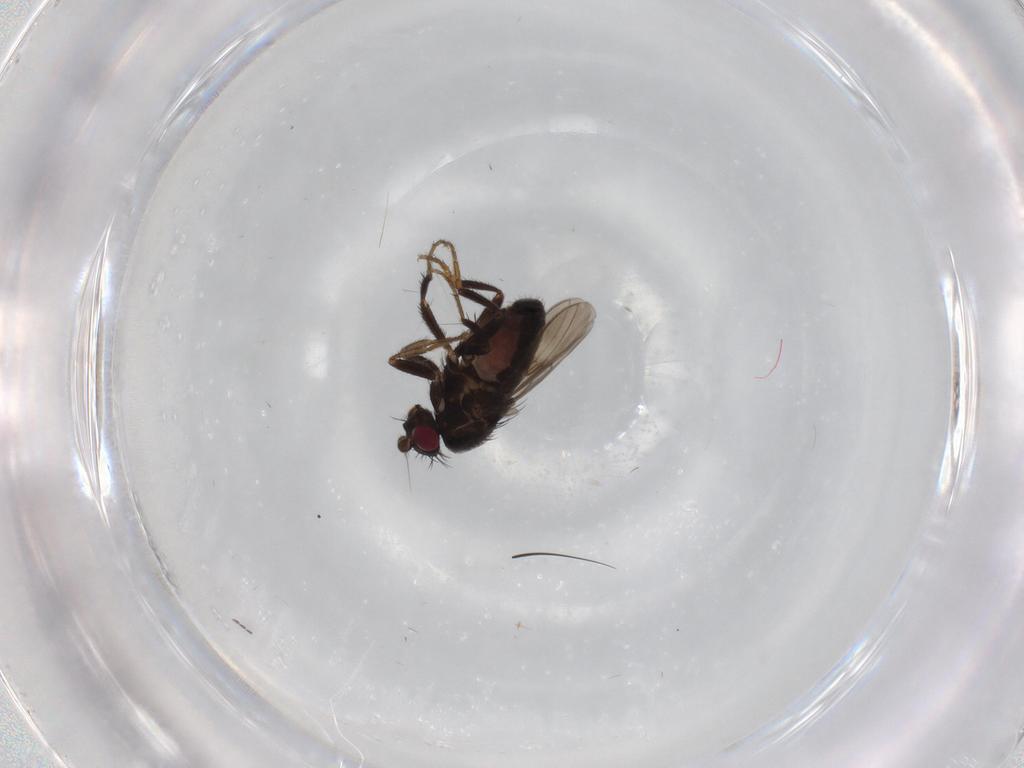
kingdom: Animalia
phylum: Arthropoda
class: Insecta
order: Diptera
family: Sphaeroceridae
